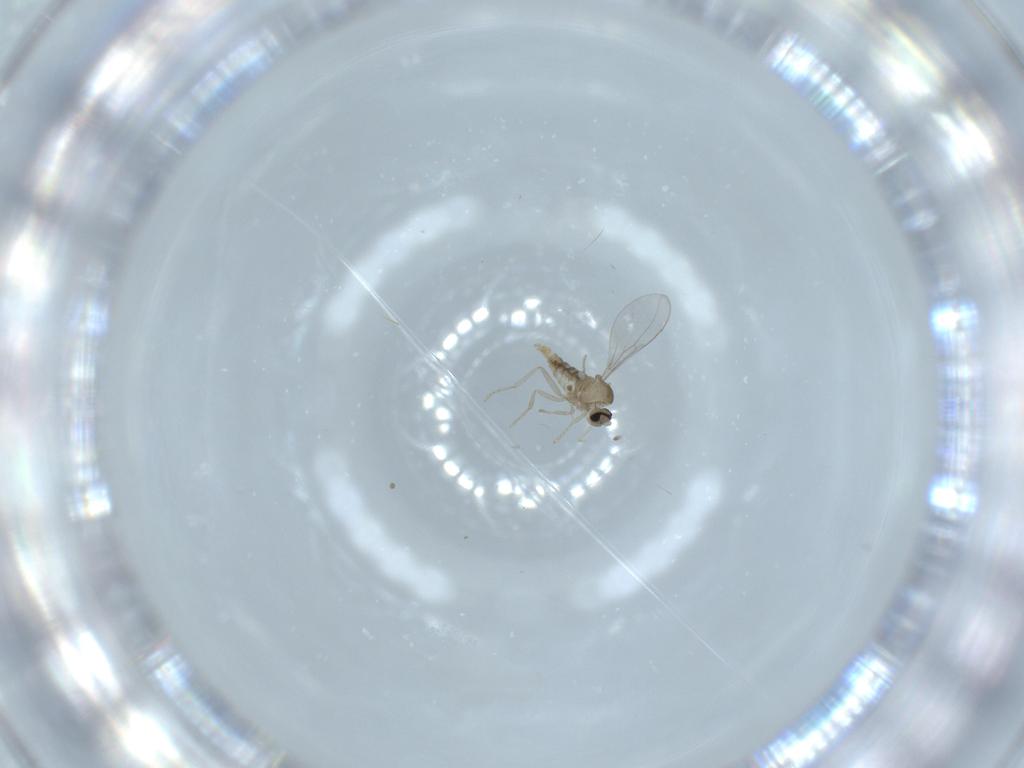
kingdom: Animalia
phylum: Arthropoda
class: Insecta
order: Diptera
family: Cecidomyiidae
